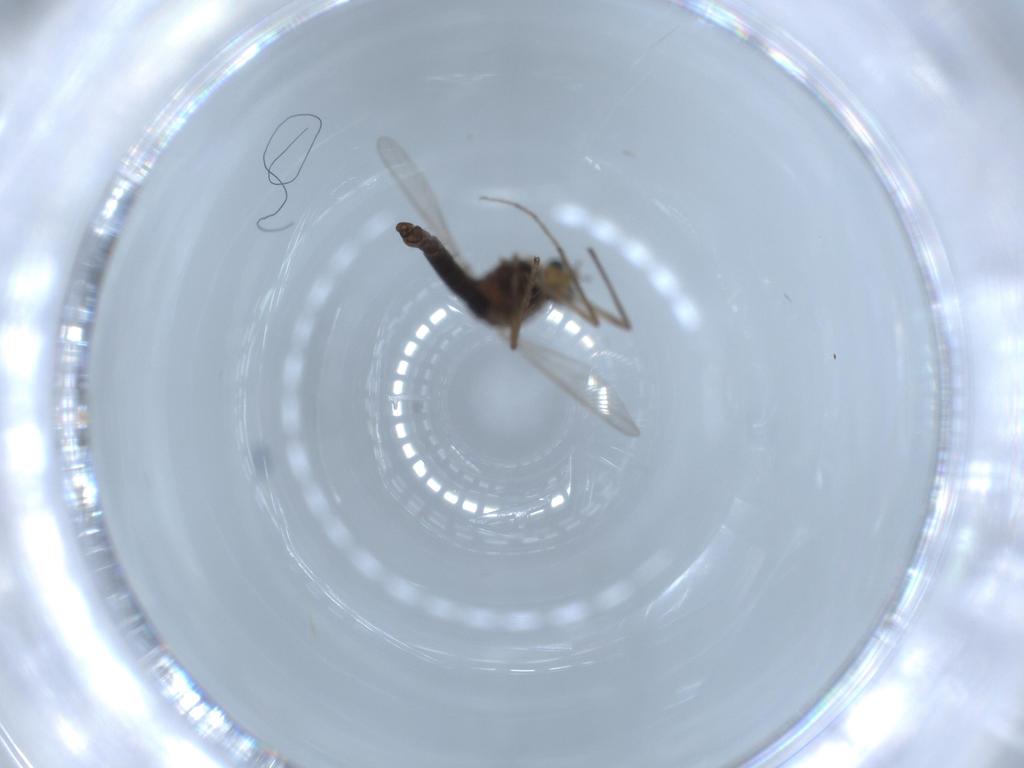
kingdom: Animalia
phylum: Arthropoda
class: Insecta
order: Diptera
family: Chironomidae
